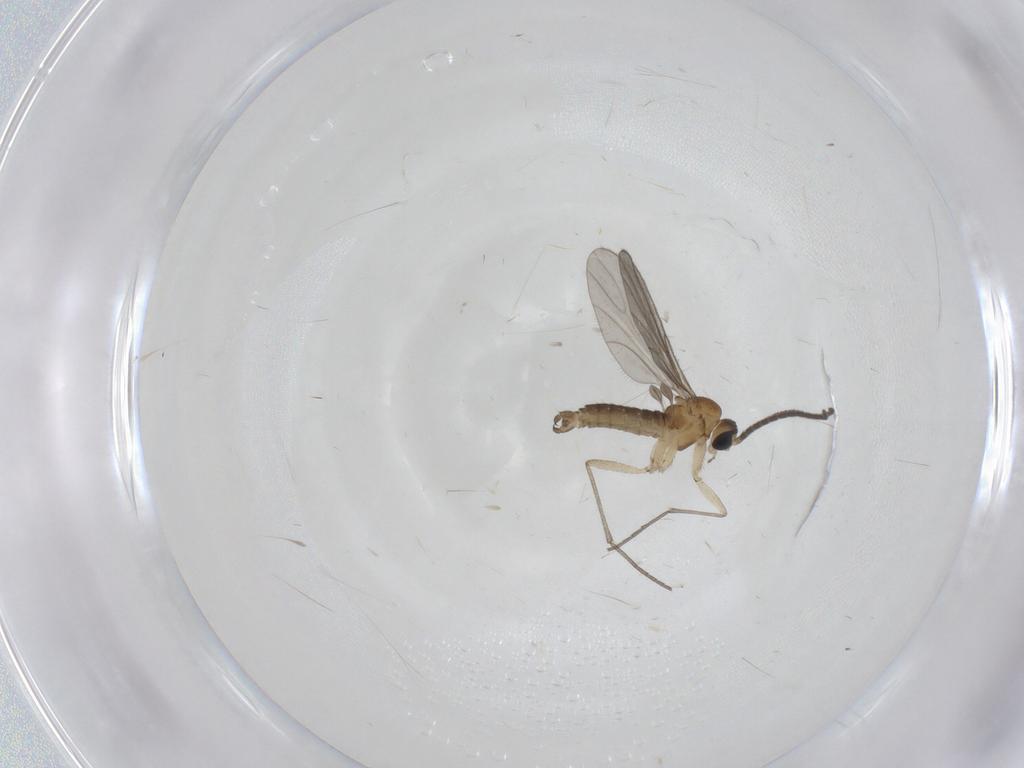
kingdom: Animalia
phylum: Arthropoda
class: Insecta
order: Diptera
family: Sciaridae
